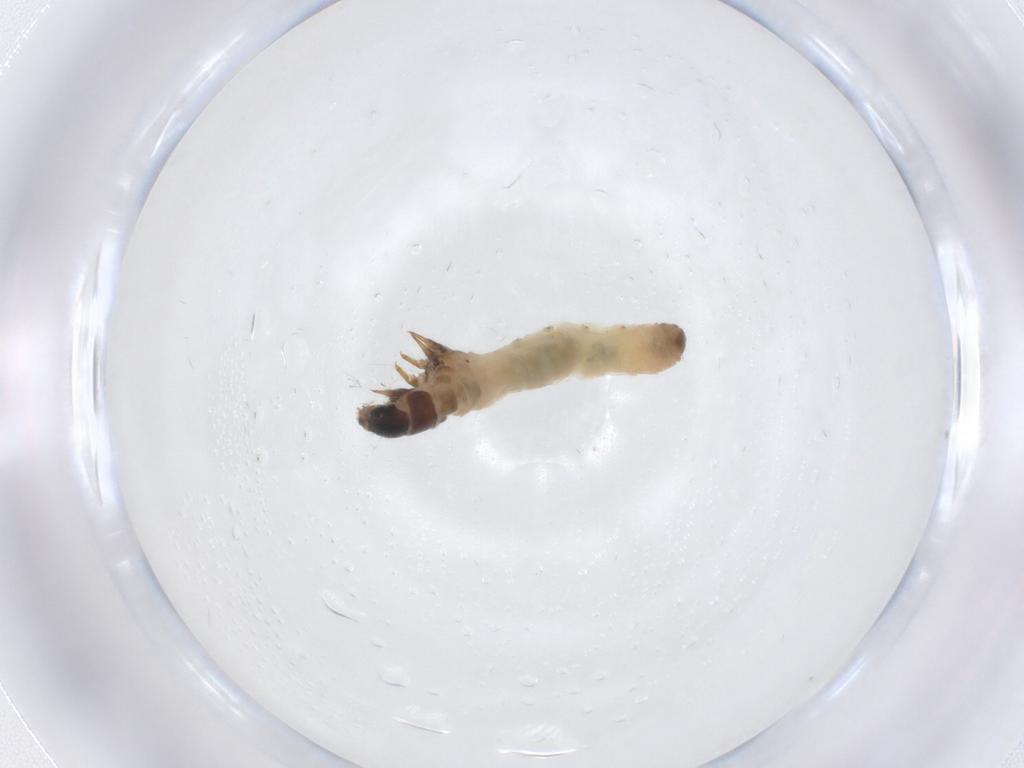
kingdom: Animalia
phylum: Arthropoda
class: Insecta
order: Lepidoptera
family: Psychidae
